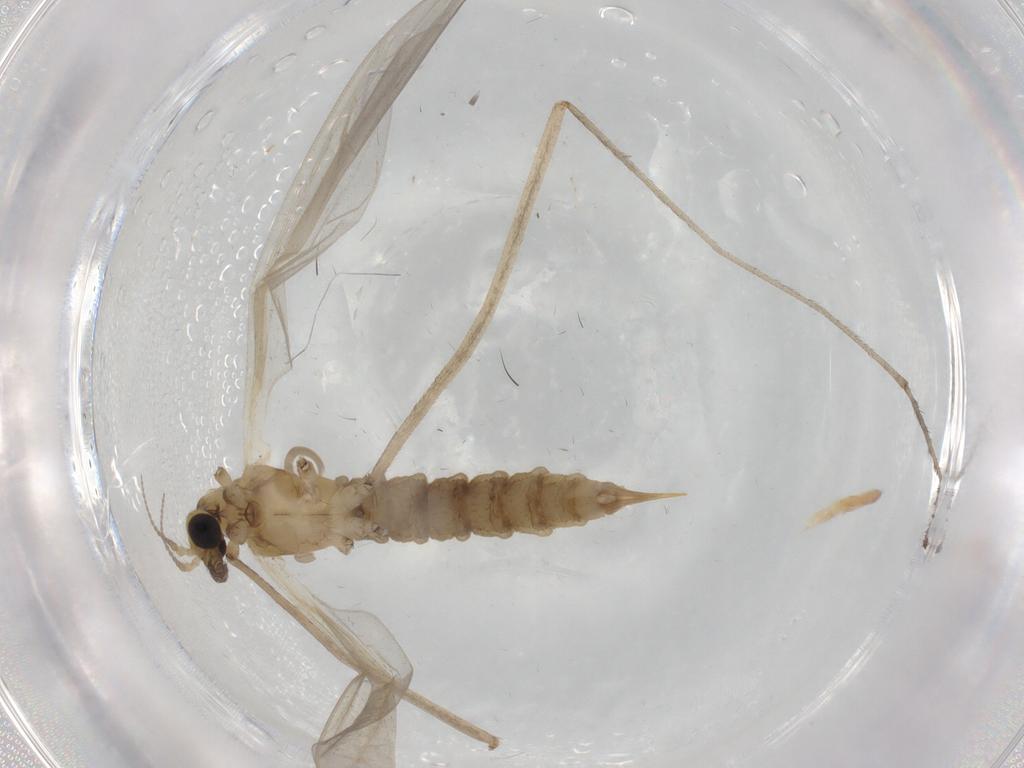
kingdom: Animalia
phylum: Arthropoda
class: Insecta
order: Diptera
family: Limoniidae
